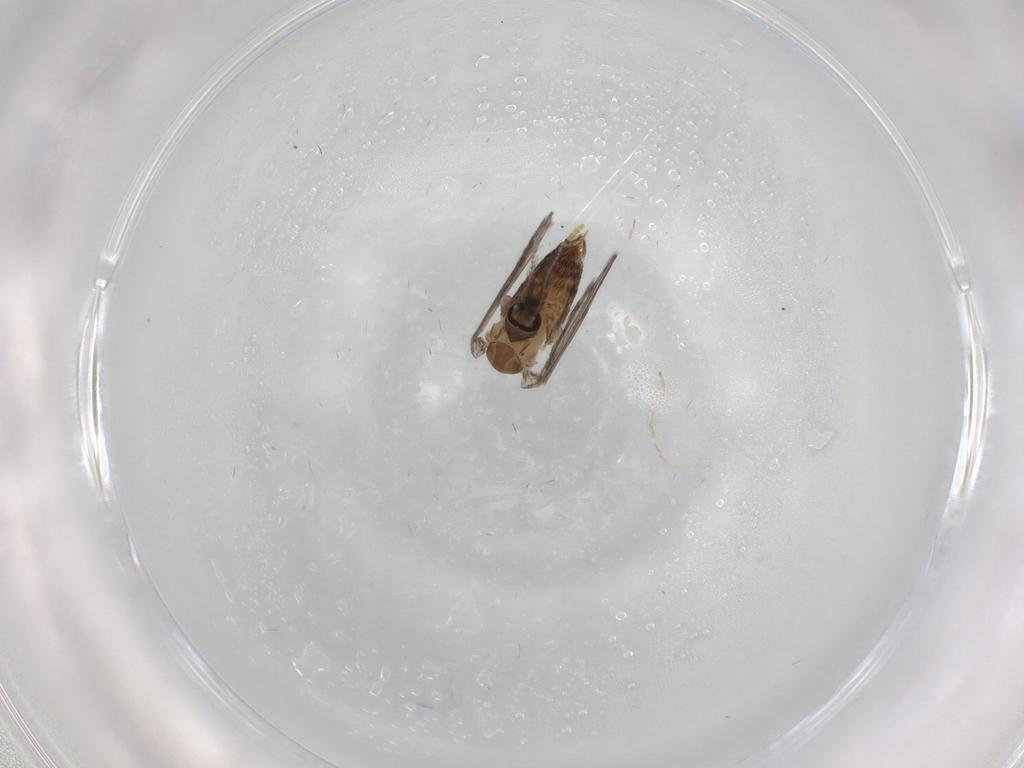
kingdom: Animalia
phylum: Arthropoda
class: Insecta
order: Diptera
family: Psychodidae
